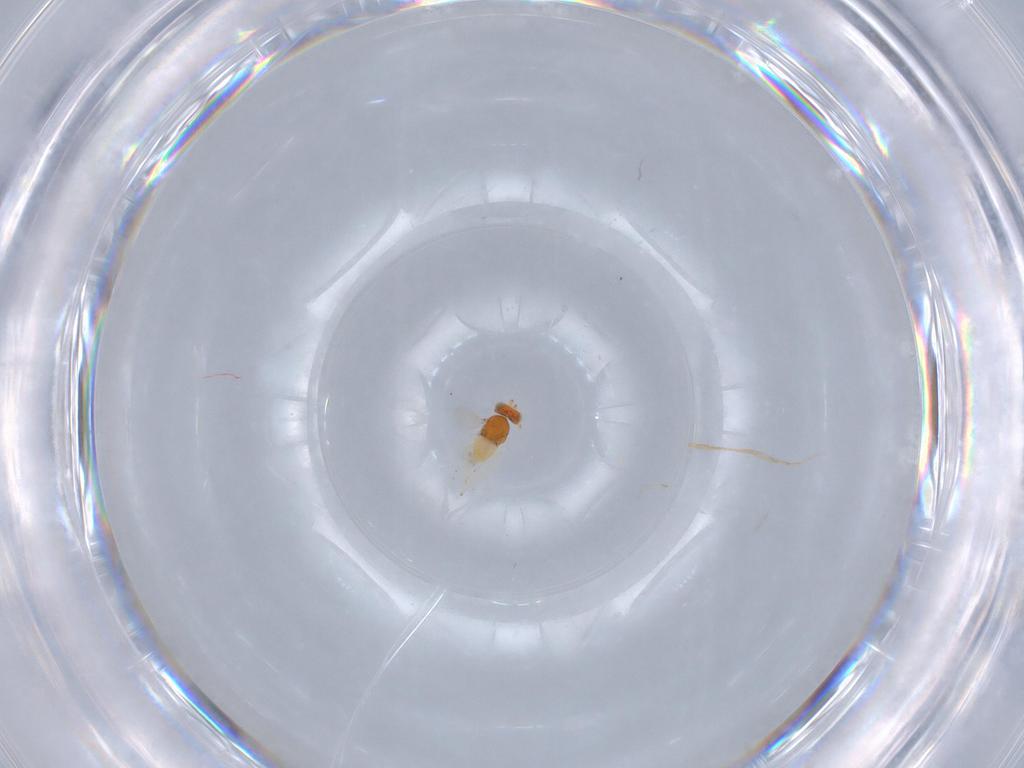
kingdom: Animalia
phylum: Arthropoda
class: Insecta
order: Hymenoptera
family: Aphelinidae
